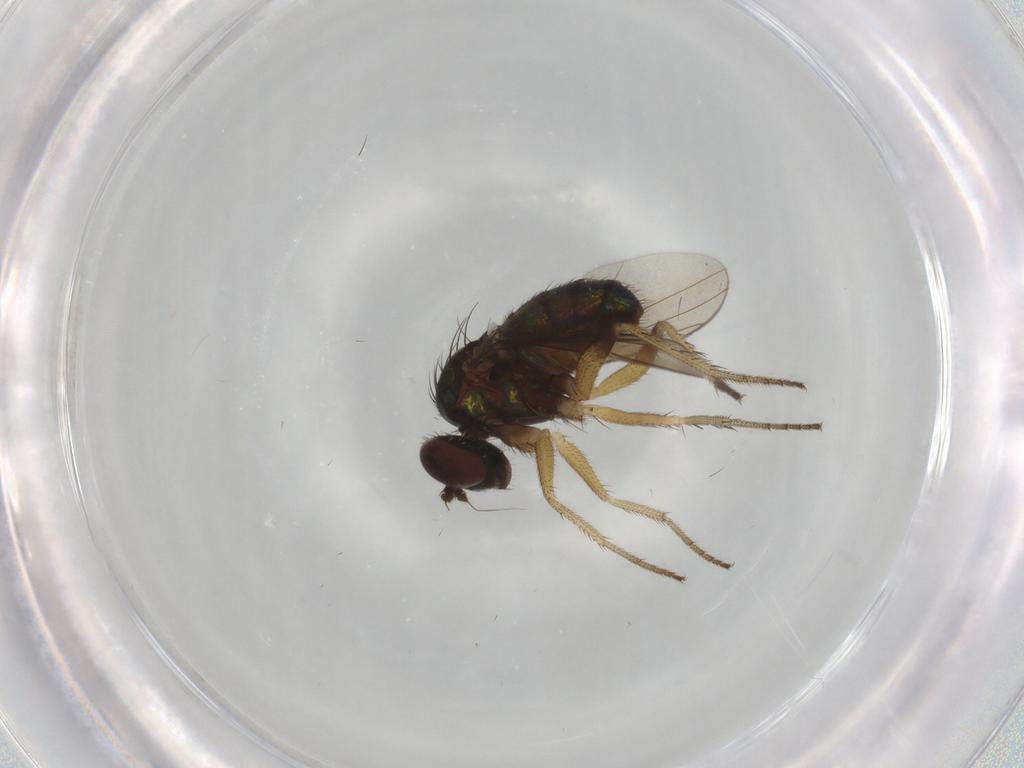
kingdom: Animalia
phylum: Arthropoda
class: Insecta
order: Diptera
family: Dolichopodidae
